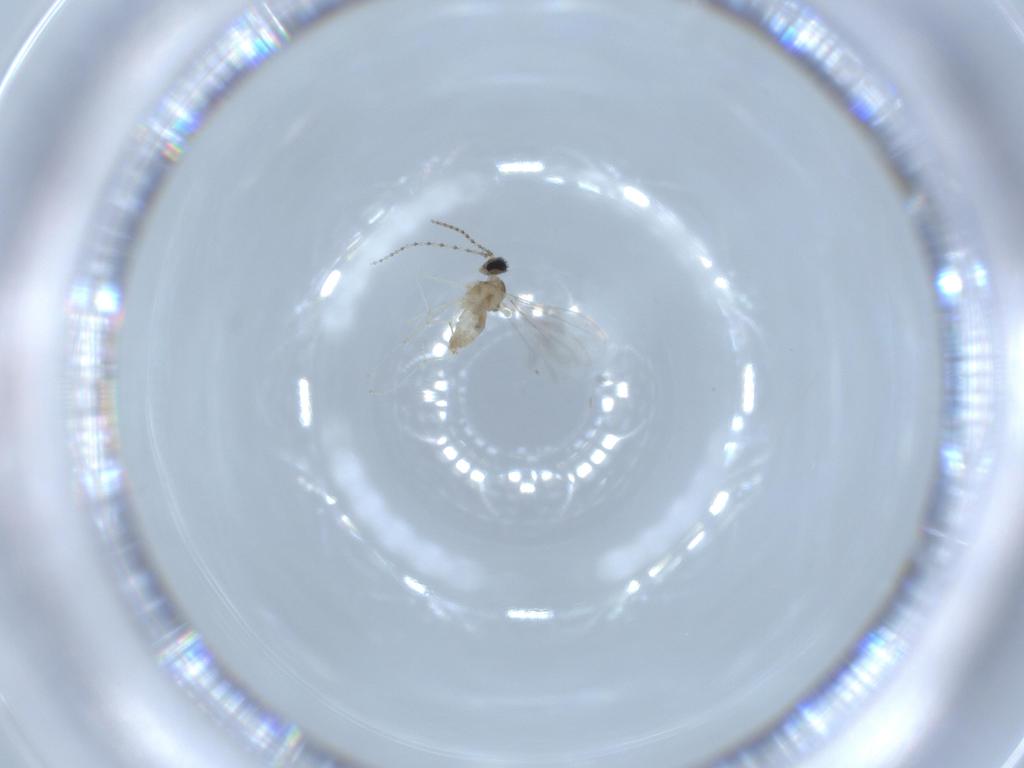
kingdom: Animalia
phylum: Arthropoda
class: Insecta
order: Diptera
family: Cecidomyiidae
